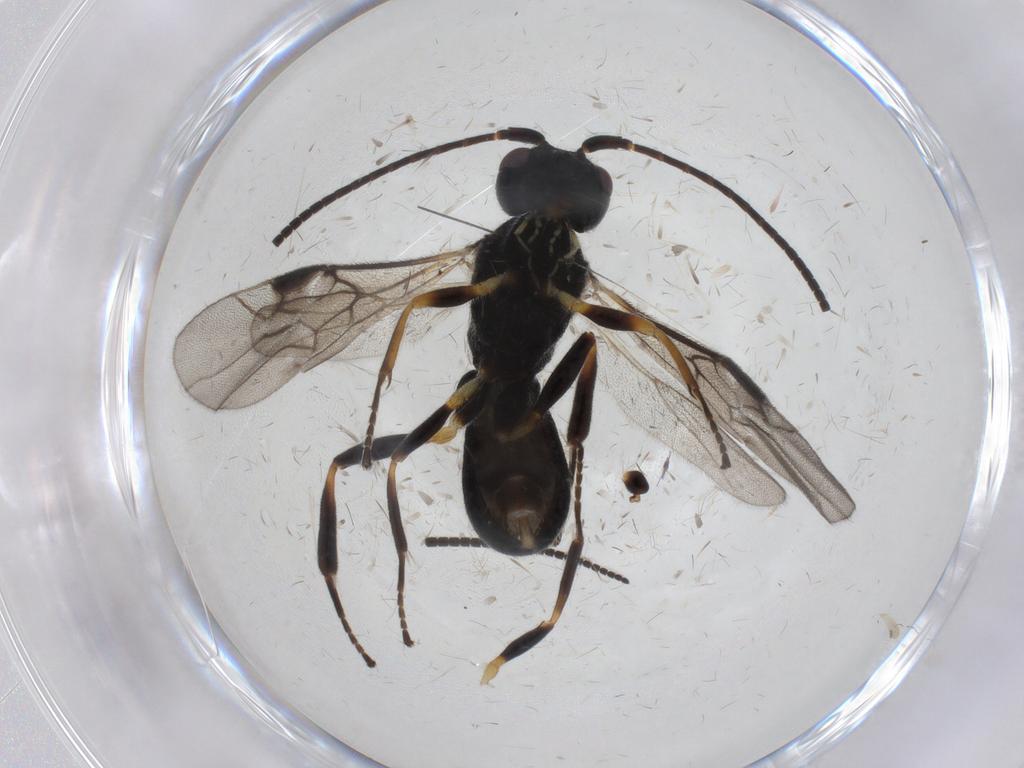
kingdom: Animalia
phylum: Arthropoda
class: Insecta
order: Hymenoptera
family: Braconidae
